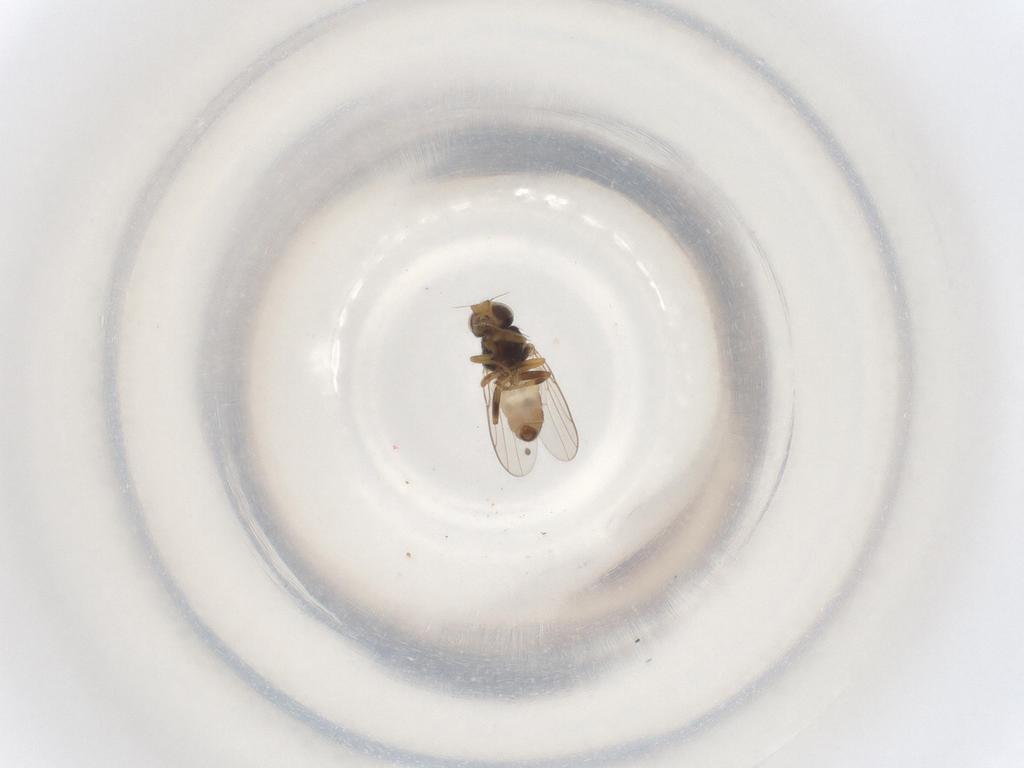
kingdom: Animalia
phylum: Arthropoda
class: Insecta
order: Diptera
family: Chloropidae
